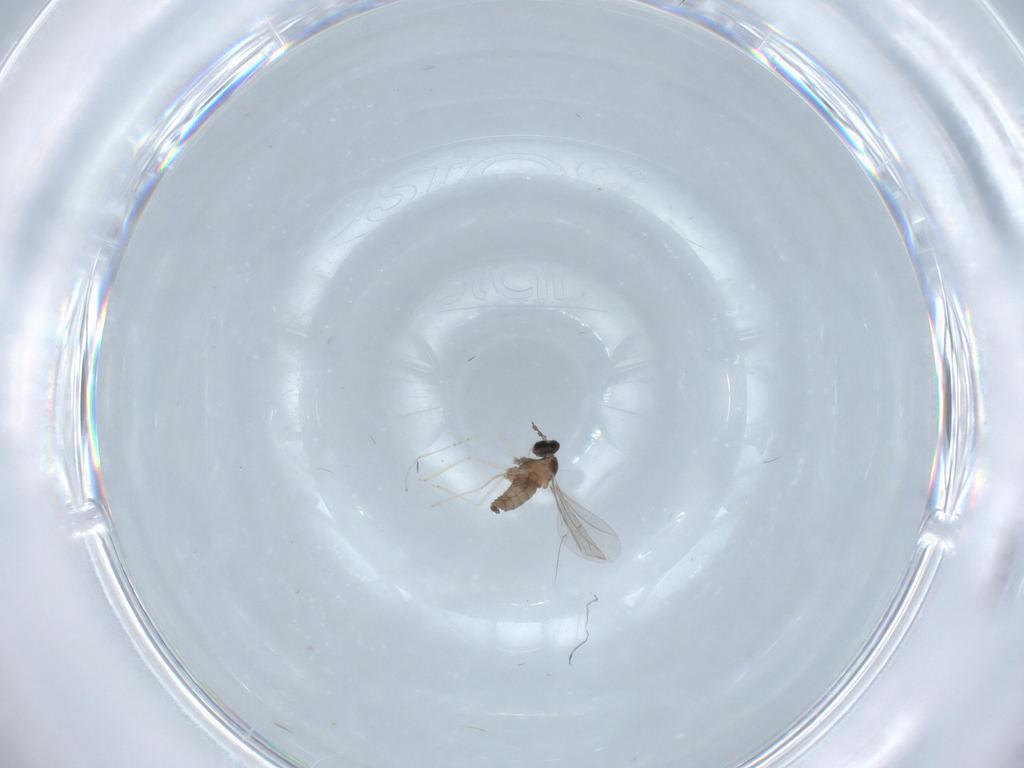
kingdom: Animalia
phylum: Arthropoda
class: Insecta
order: Diptera
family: Cecidomyiidae
